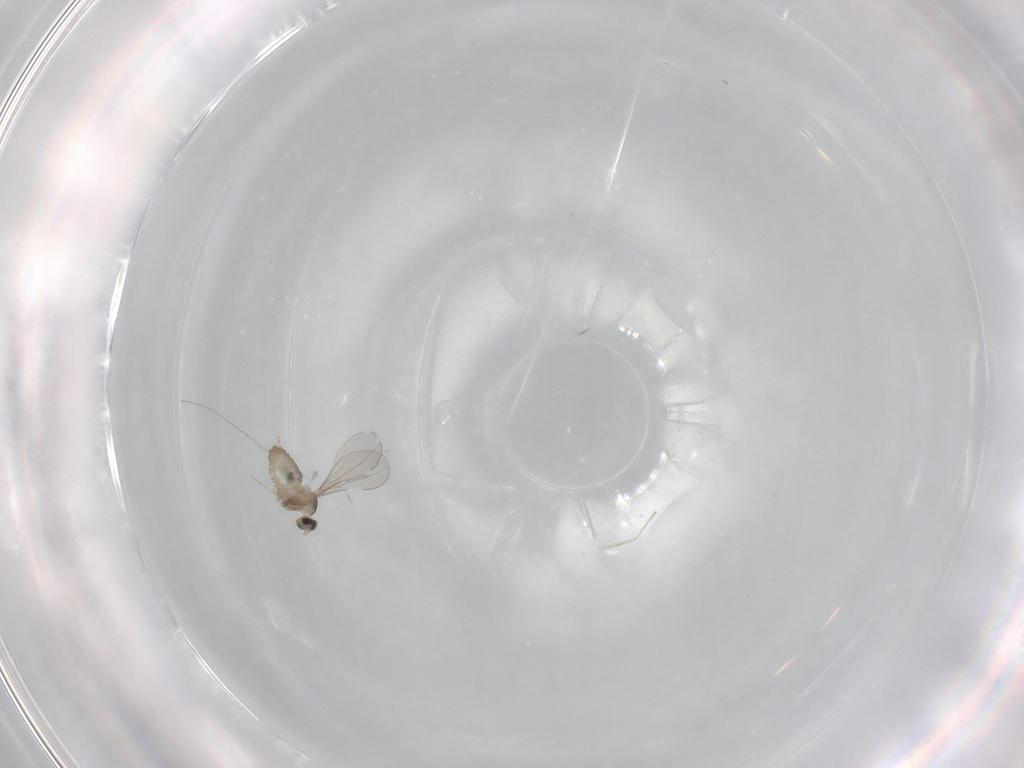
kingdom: Animalia
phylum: Arthropoda
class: Insecta
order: Diptera
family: Cecidomyiidae
